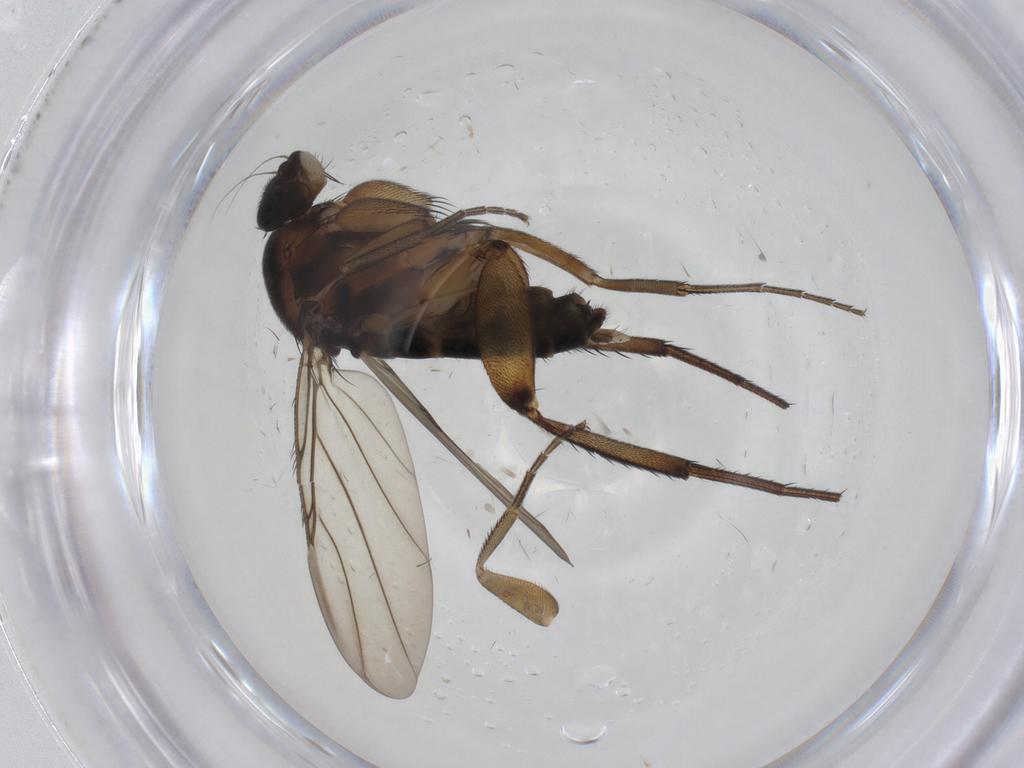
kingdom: Animalia
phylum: Arthropoda
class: Insecta
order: Diptera
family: Phoridae
